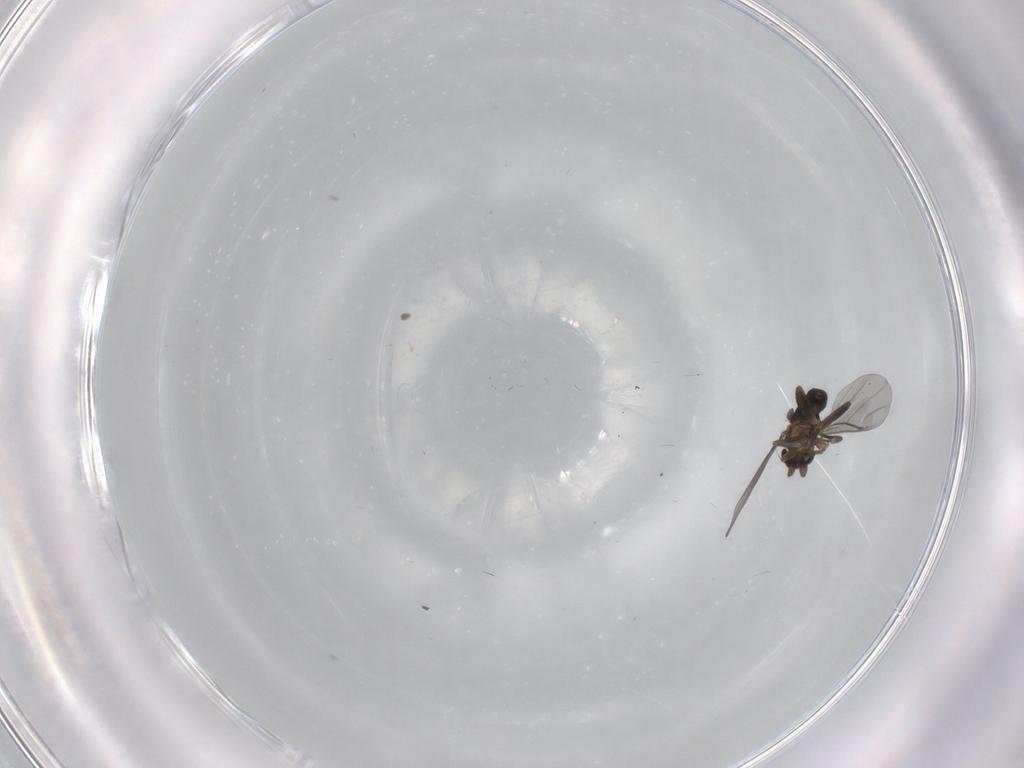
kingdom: Animalia
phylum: Arthropoda
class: Insecta
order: Diptera
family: Phoridae
